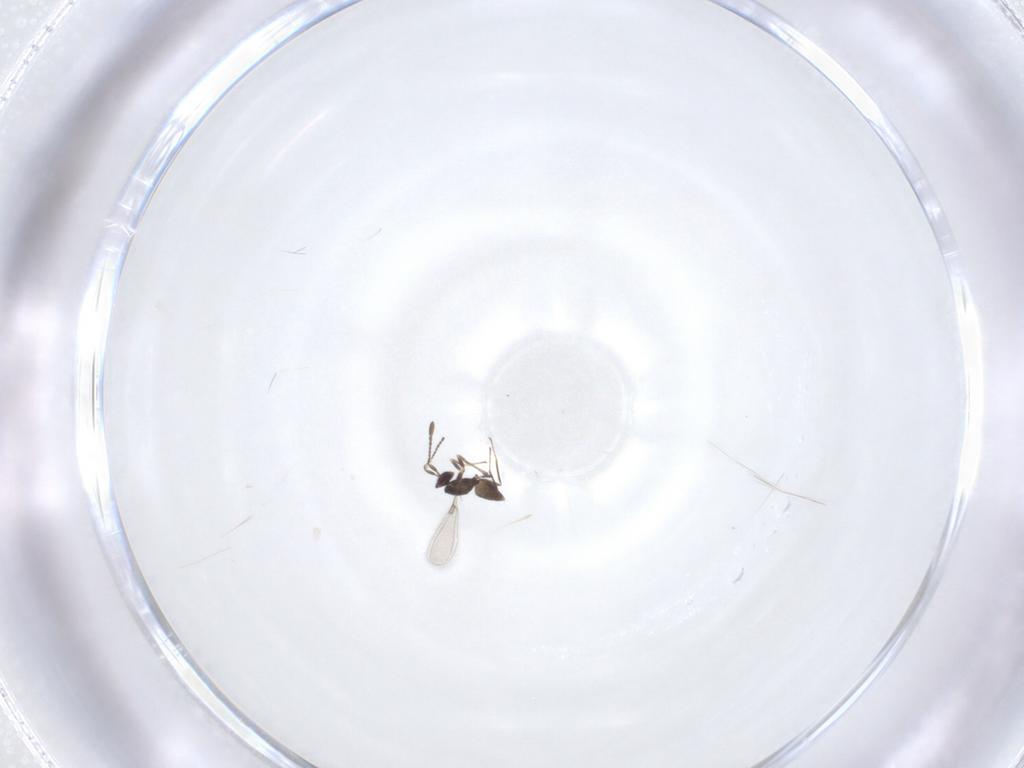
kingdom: Animalia
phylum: Arthropoda
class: Insecta
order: Hymenoptera
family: Mymaridae
